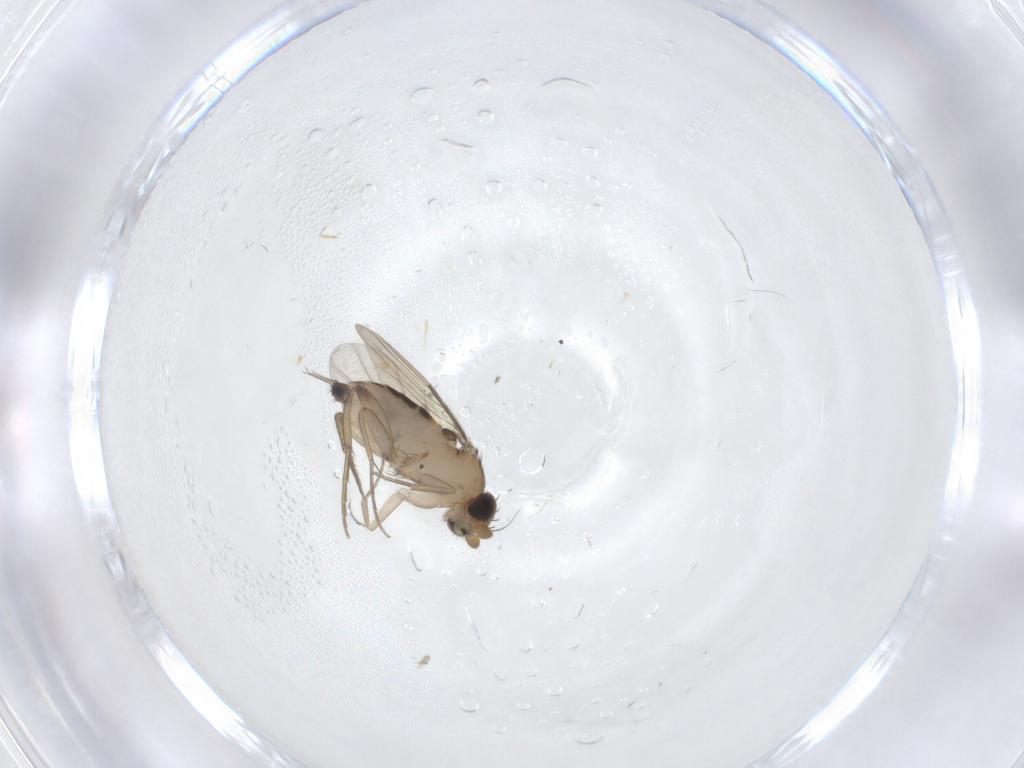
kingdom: Animalia
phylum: Arthropoda
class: Insecta
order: Diptera
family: Phoridae
